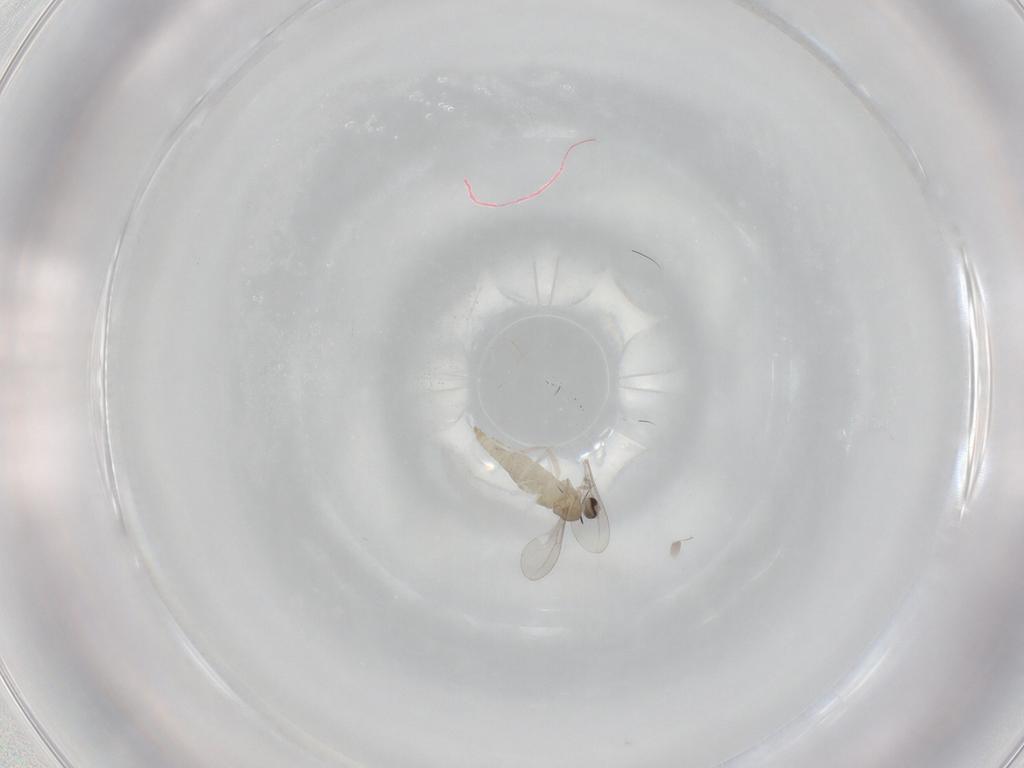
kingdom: Animalia
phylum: Arthropoda
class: Insecta
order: Diptera
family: Cecidomyiidae
